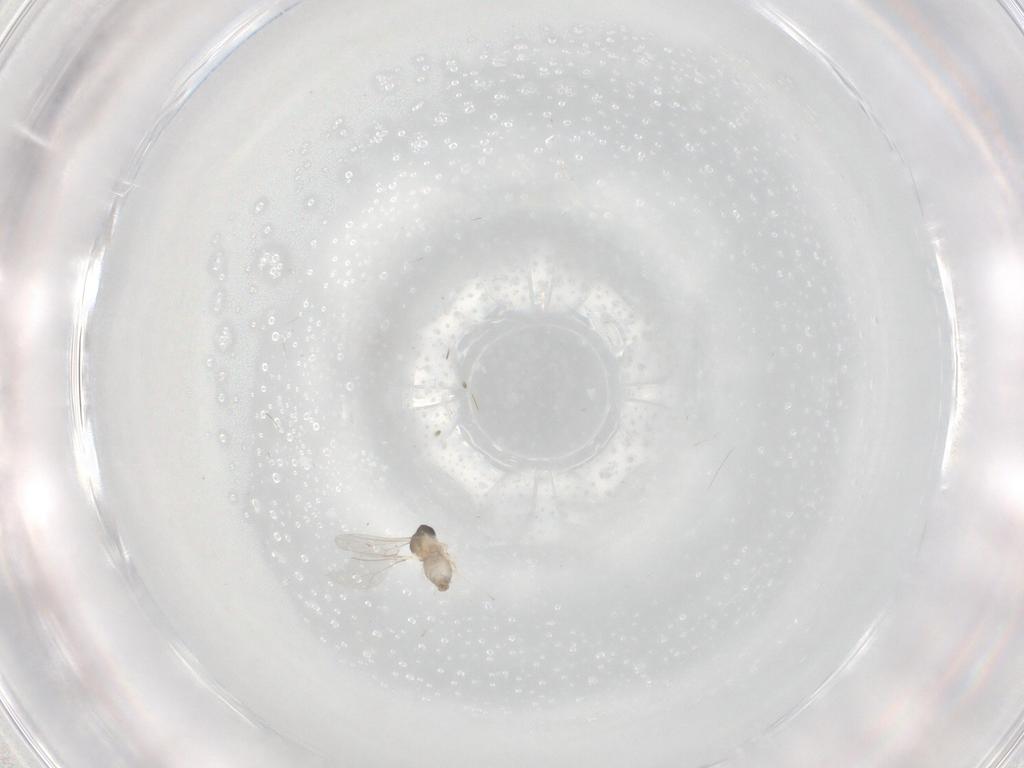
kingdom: Animalia
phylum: Arthropoda
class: Insecta
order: Diptera
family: Cecidomyiidae
